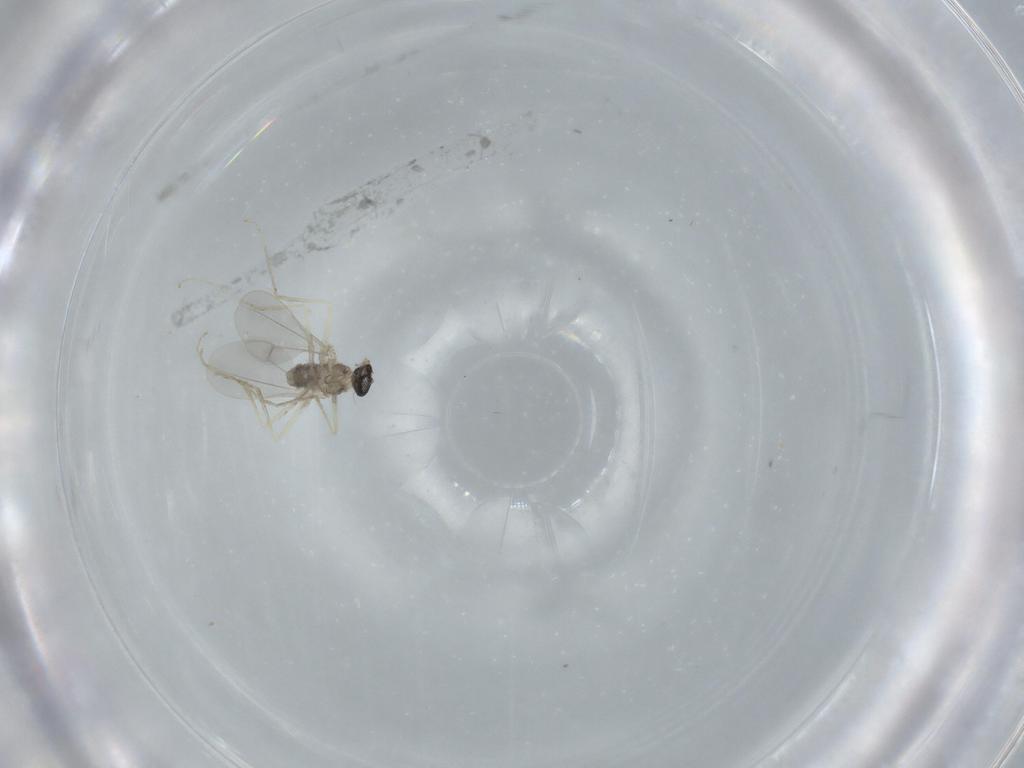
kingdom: Animalia
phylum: Arthropoda
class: Insecta
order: Diptera
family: Cecidomyiidae
